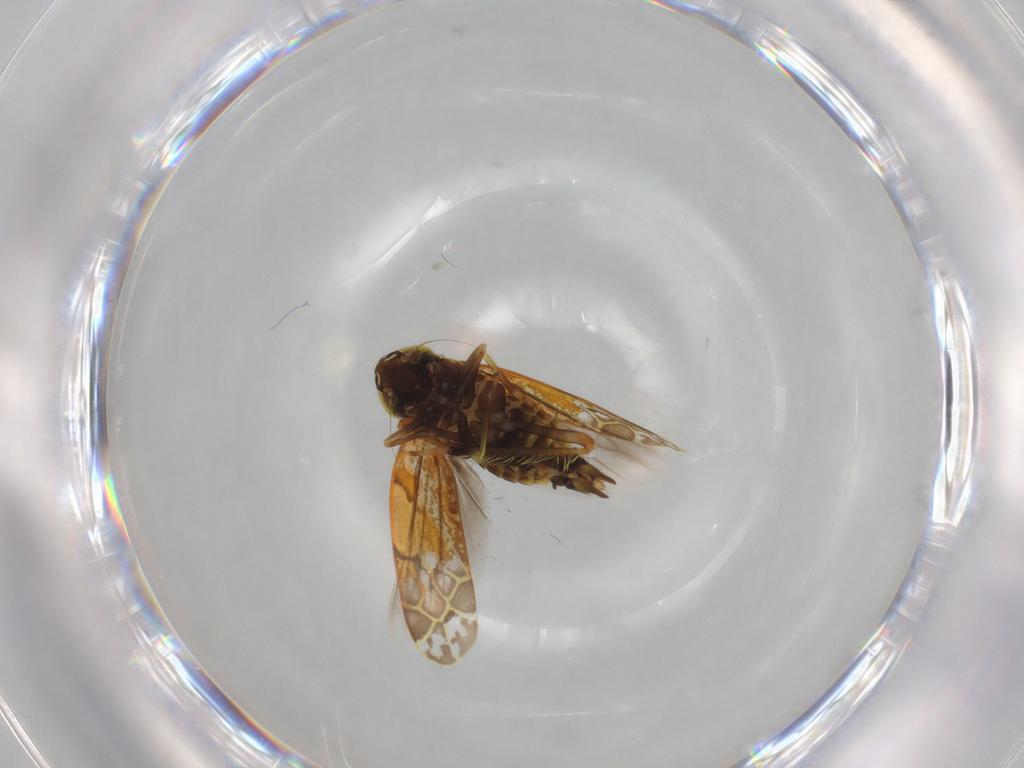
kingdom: Animalia
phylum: Arthropoda
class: Insecta
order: Hemiptera
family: Cicadellidae
